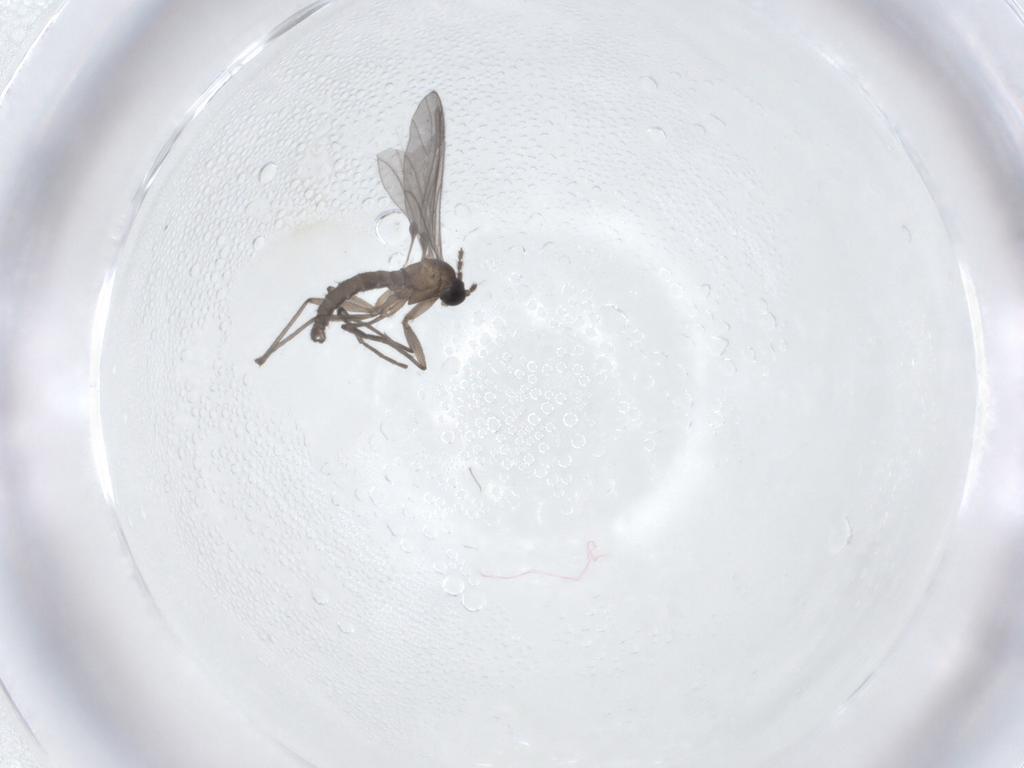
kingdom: Animalia
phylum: Arthropoda
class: Insecta
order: Diptera
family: Sciaridae
